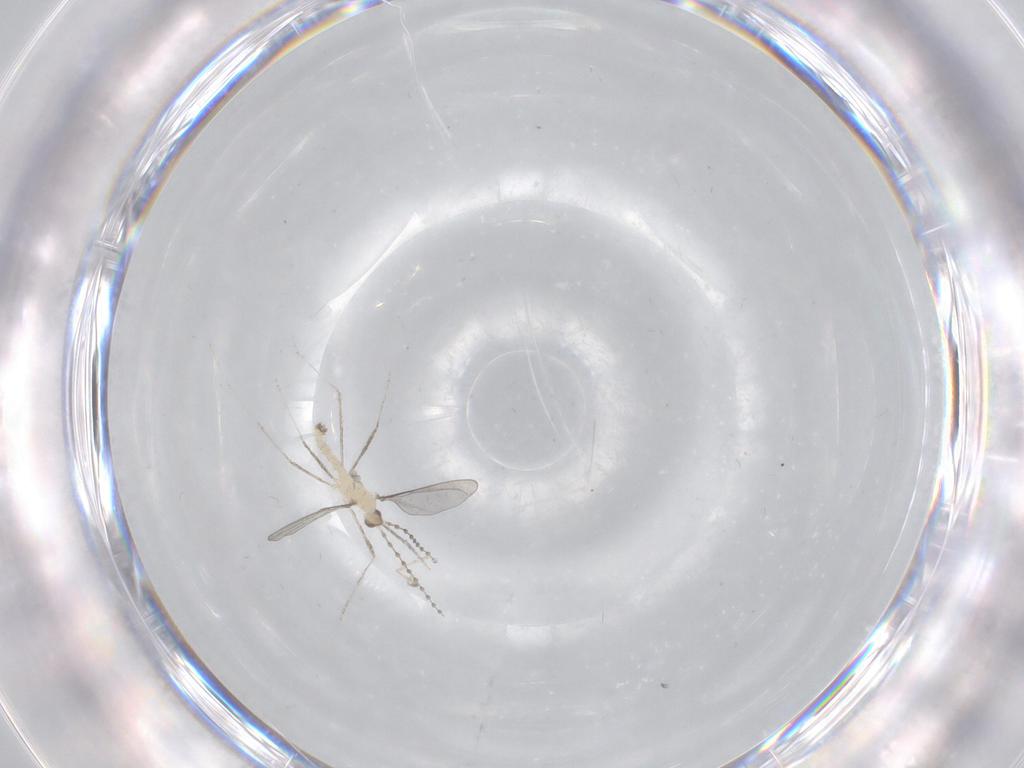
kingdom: Animalia
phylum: Arthropoda
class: Insecta
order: Diptera
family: Cecidomyiidae
